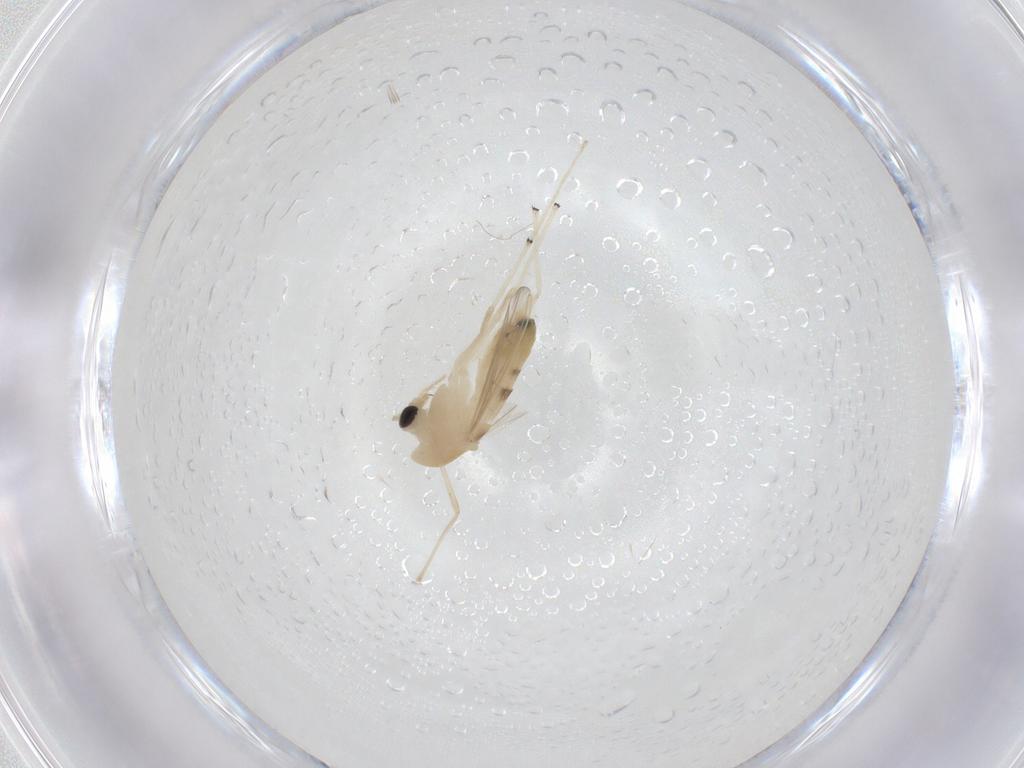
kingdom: Animalia
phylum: Arthropoda
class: Insecta
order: Diptera
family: Chironomidae
